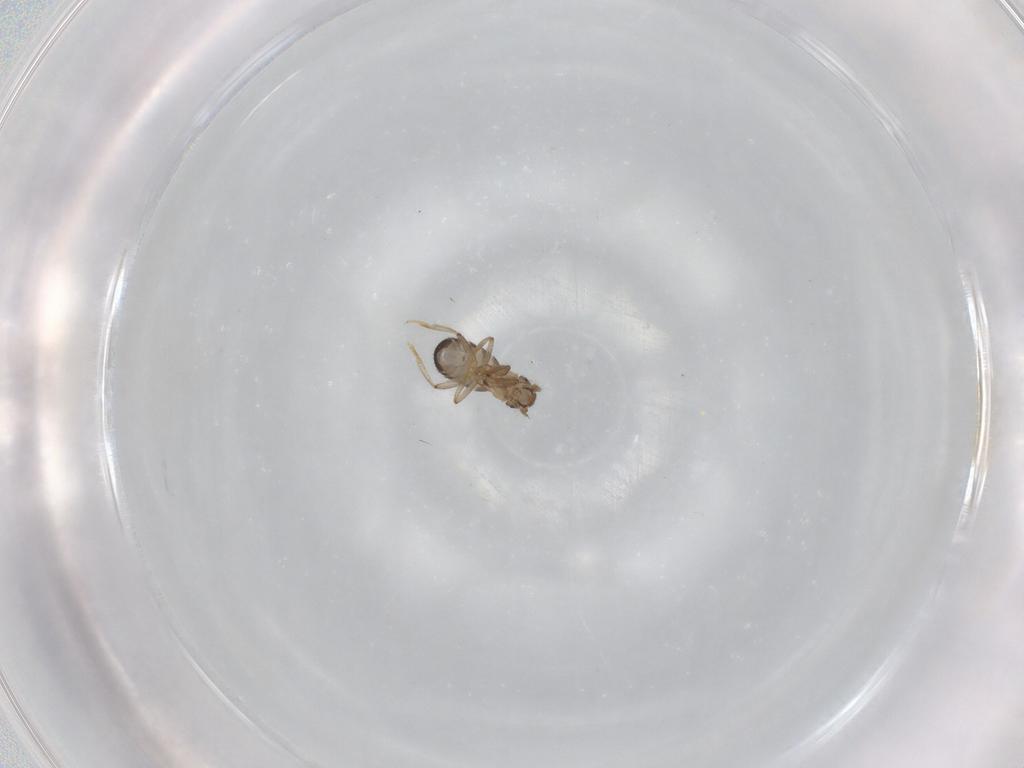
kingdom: Animalia
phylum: Arthropoda
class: Insecta
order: Diptera
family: Phoridae
